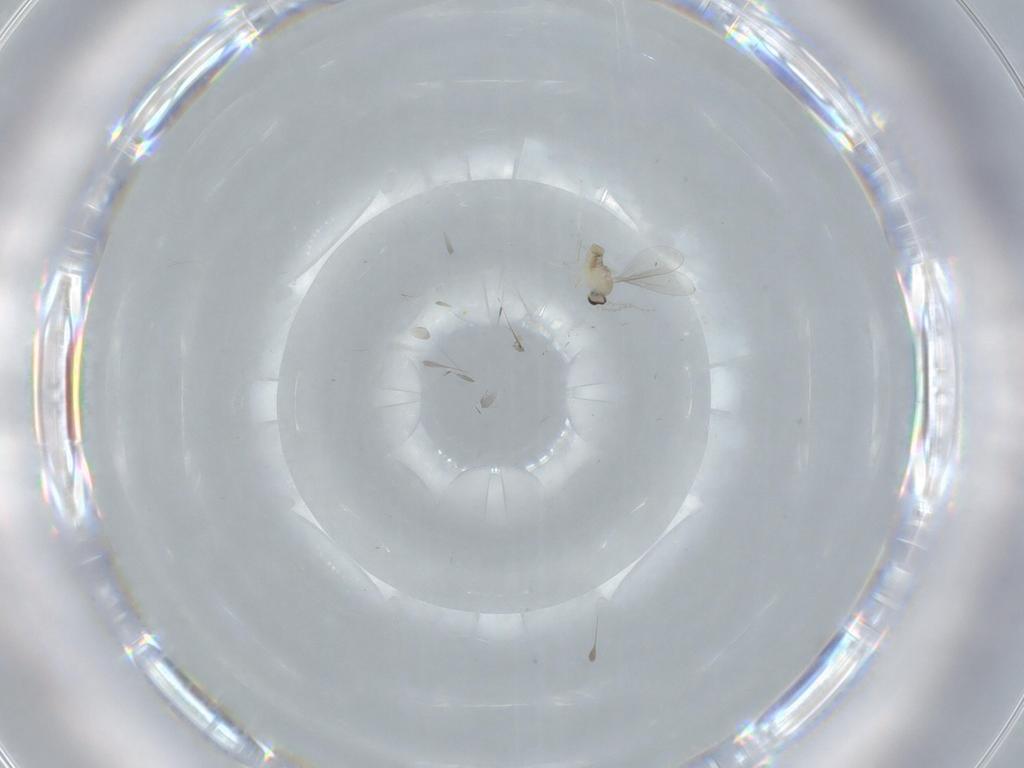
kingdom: Animalia
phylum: Arthropoda
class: Insecta
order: Diptera
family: Cecidomyiidae
